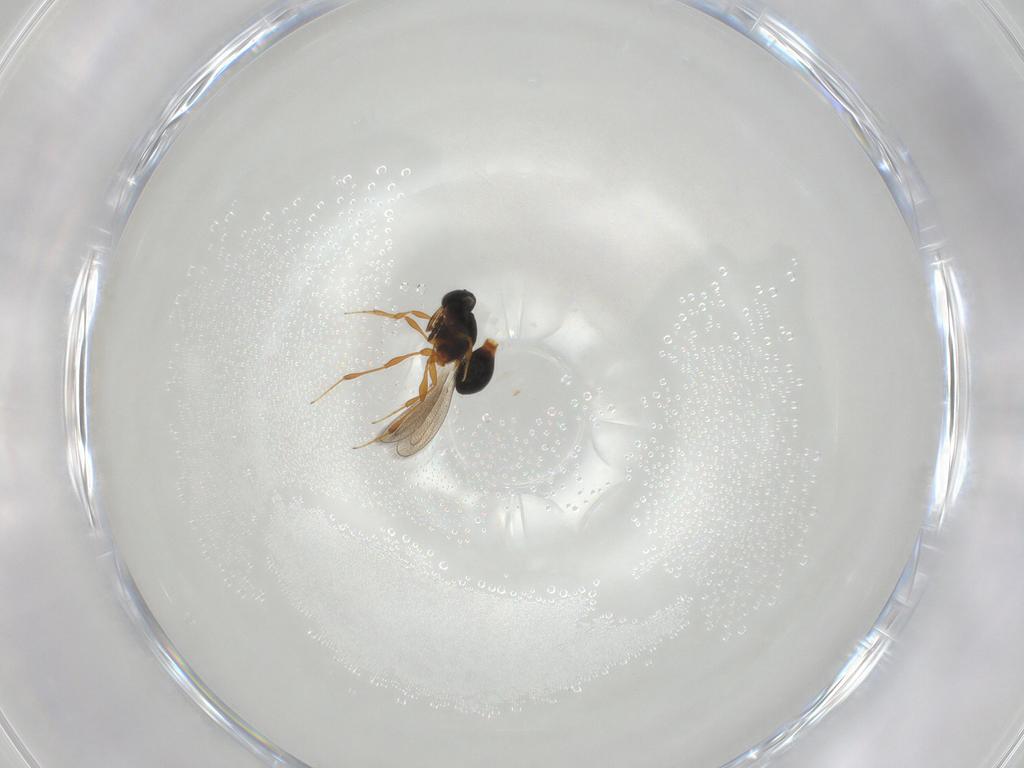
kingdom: Animalia
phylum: Arthropoda
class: Insecta
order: Hymenoptera
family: Platygastridae
